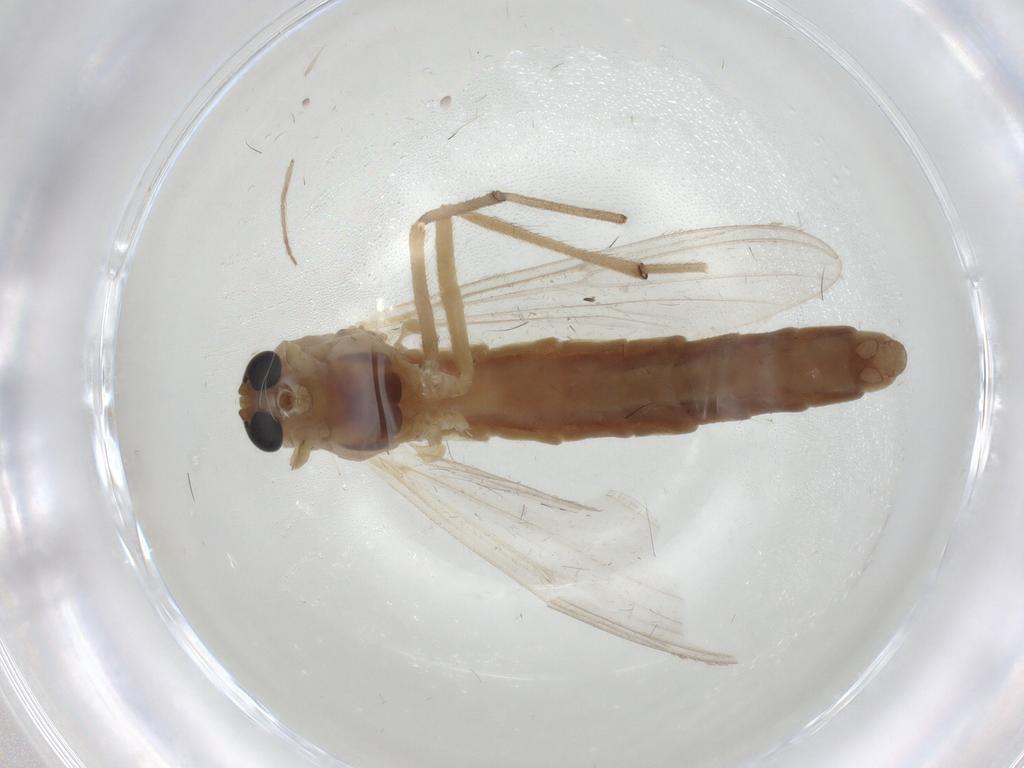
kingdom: Animalia
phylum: Arthropoda
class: Insecta
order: Diptera
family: Chironomidae
